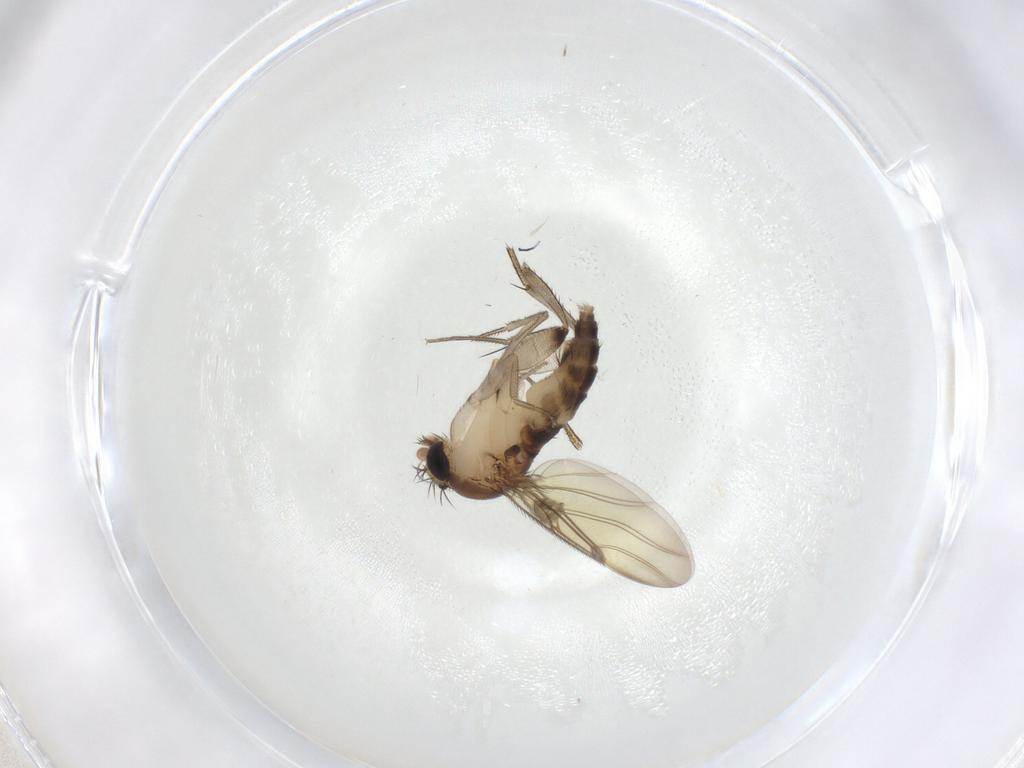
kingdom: Animalia
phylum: Arthropoda
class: Insecta
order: Diptera
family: Phoridae
